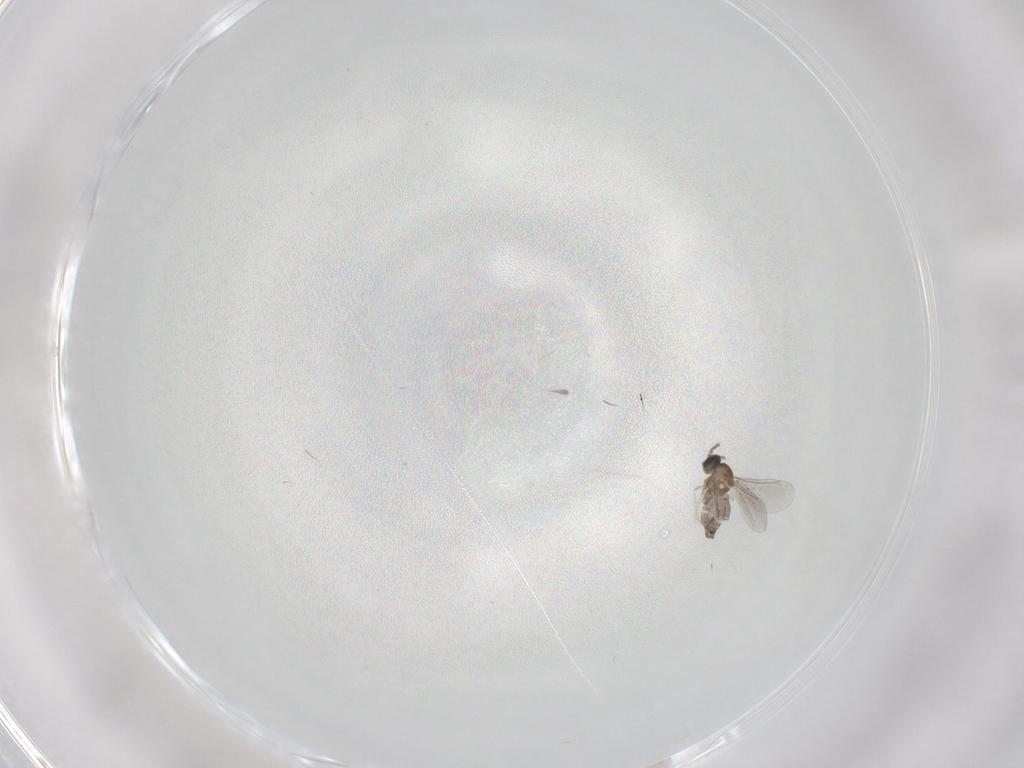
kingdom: Animalia
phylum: Arthropoda
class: Insecta
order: Diptera
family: Cecidomyiidae
